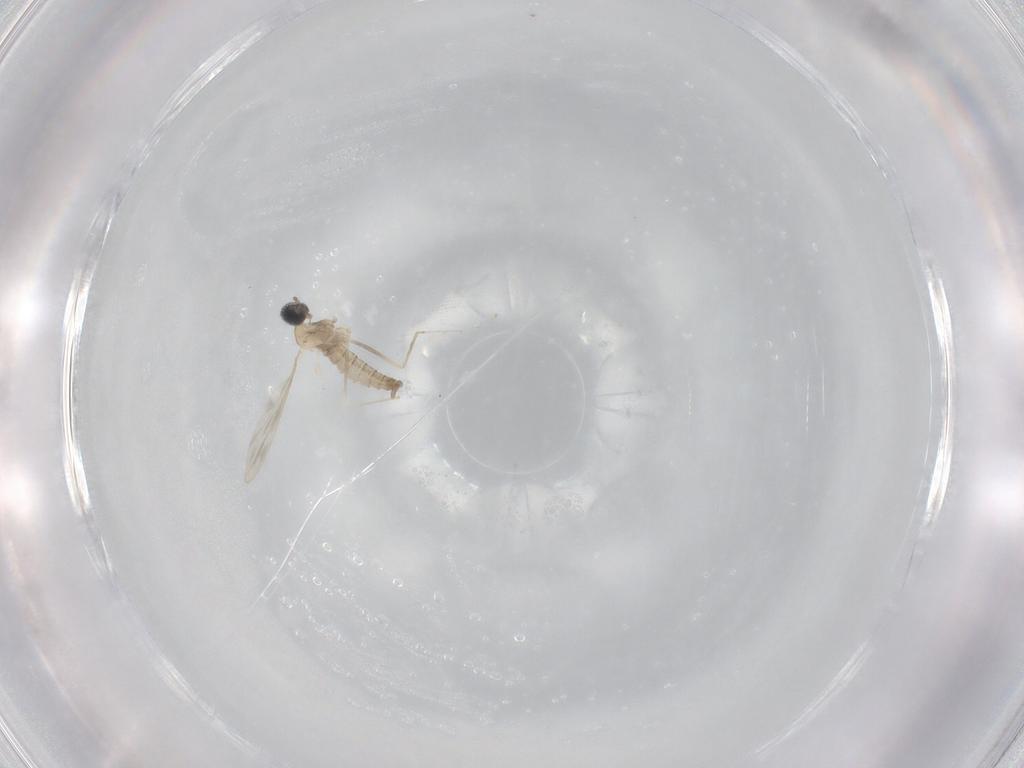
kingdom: Animalia
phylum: Arthropoda
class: Insecta
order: Diptera
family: Cecidomyiidae
